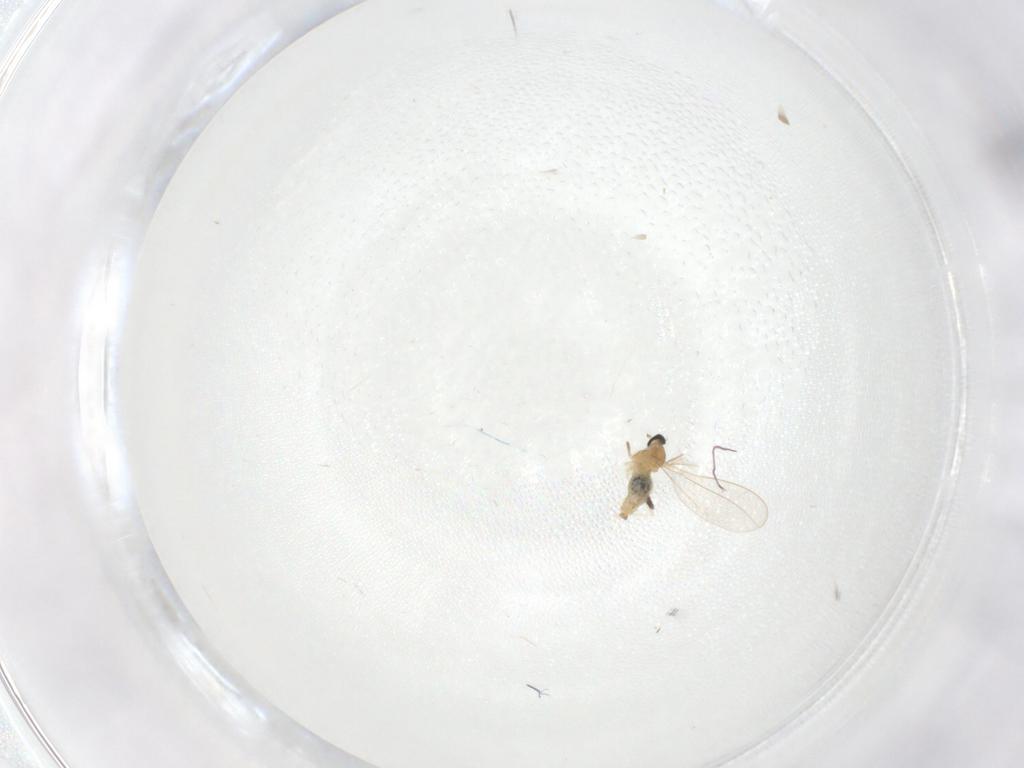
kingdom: Animalia
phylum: Arthropoda
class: Insecta
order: Diptera
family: Cecidomyiidae
